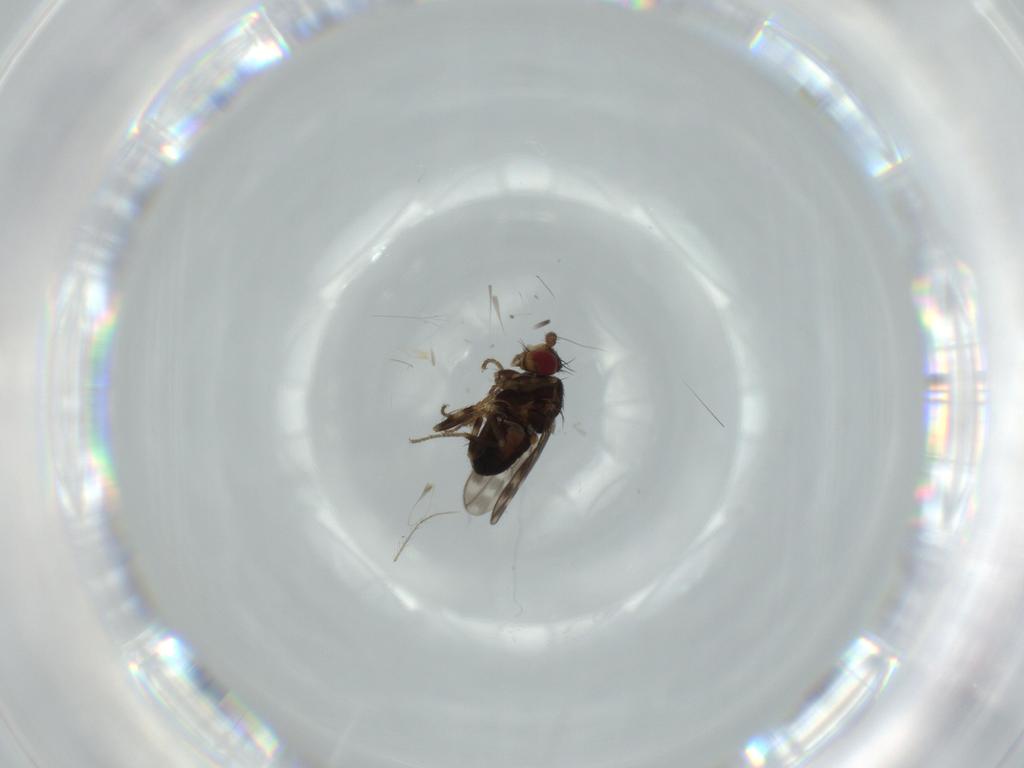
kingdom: Animalia
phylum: Arthropoda
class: Insecta
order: Diptera
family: Sphaeroceridae
